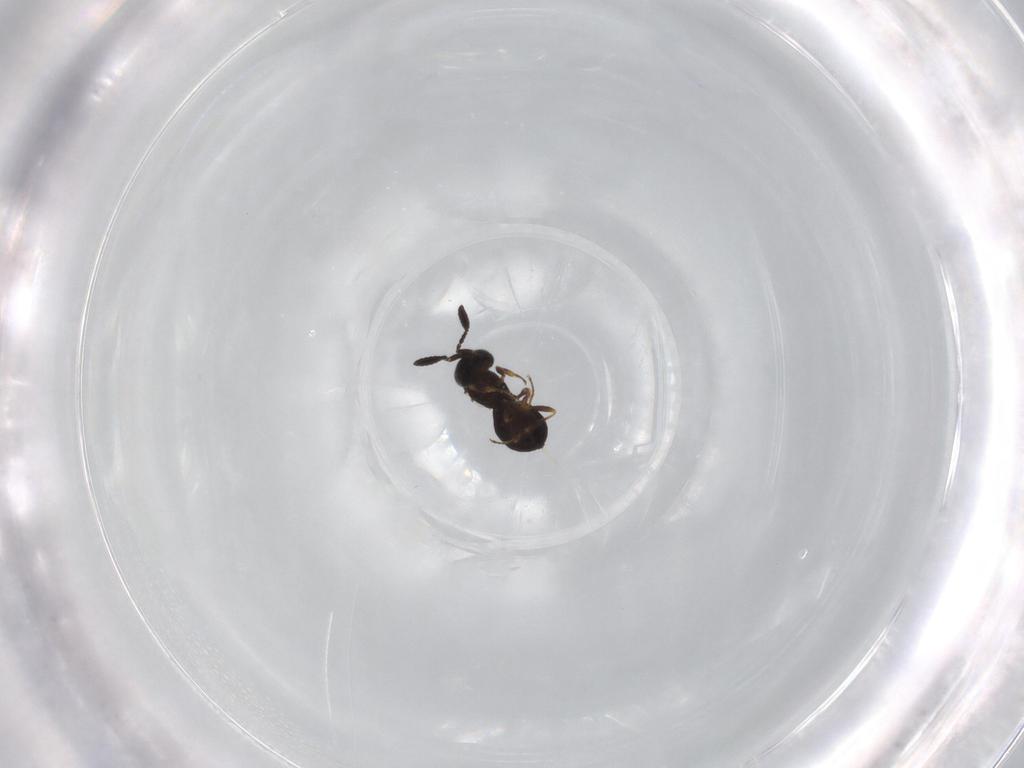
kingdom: Animalia
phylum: Arthropoda
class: Insecta
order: Hymenoptera
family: Scelionidae
